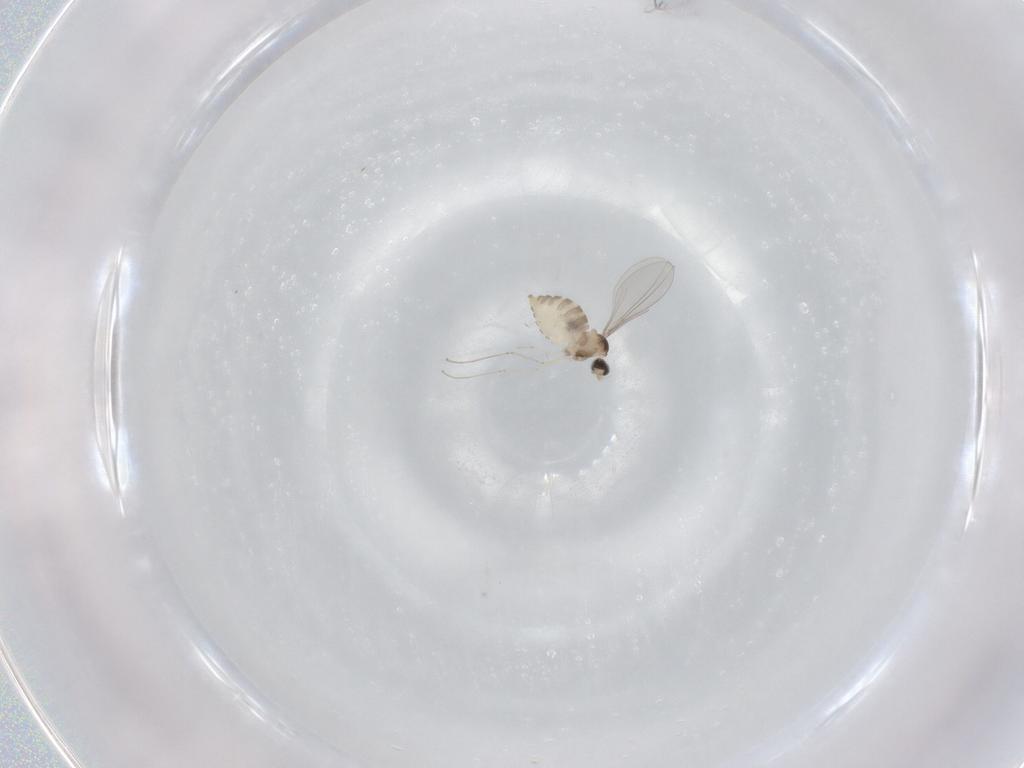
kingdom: Animalia
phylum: Arthropoda
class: Insecta
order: Diptera
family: Cecidomyiidae
